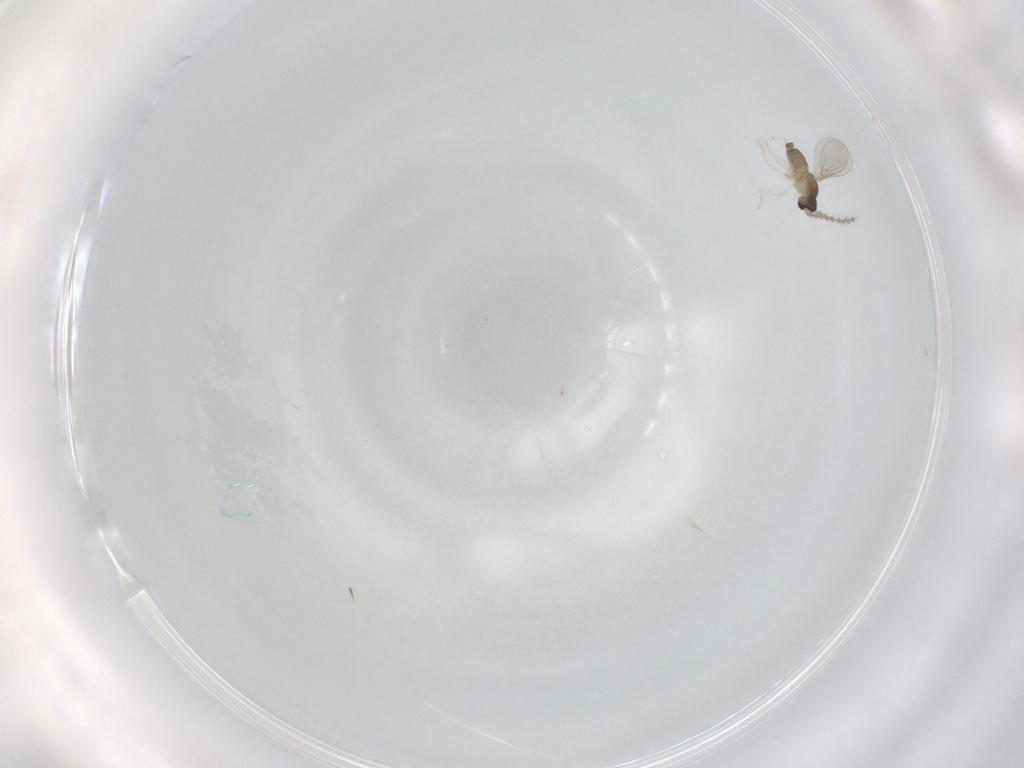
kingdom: Animalia
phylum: Arthropoda
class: Insecta
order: Diptera
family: Cecidomyiidae
